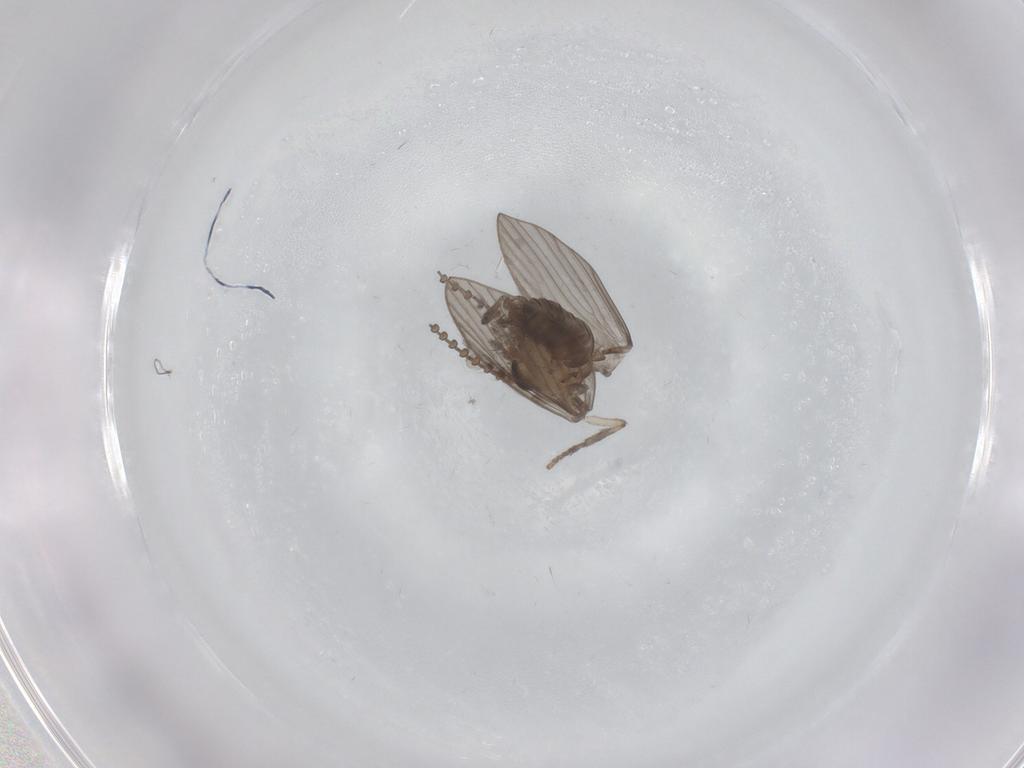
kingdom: Animalia
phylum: Arthropoda
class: Insecta
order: Diptera
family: Psychodidae
